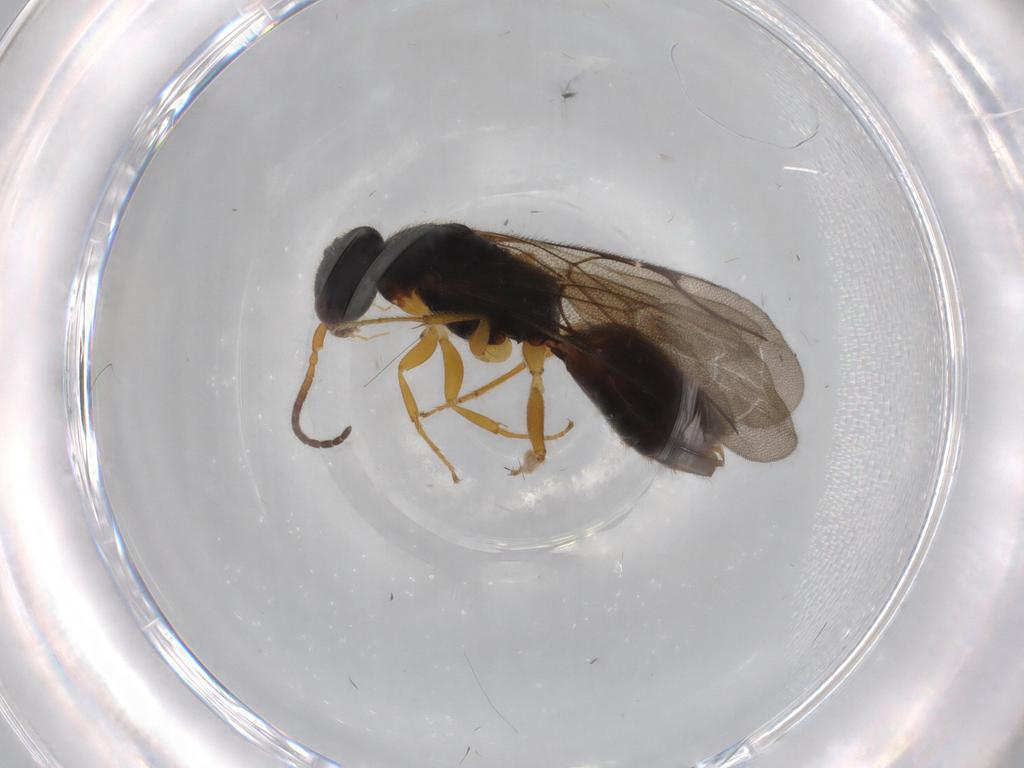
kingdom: Animalia
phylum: Arthropoda
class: Insecta
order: Hymenoptera
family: Bethylidae
